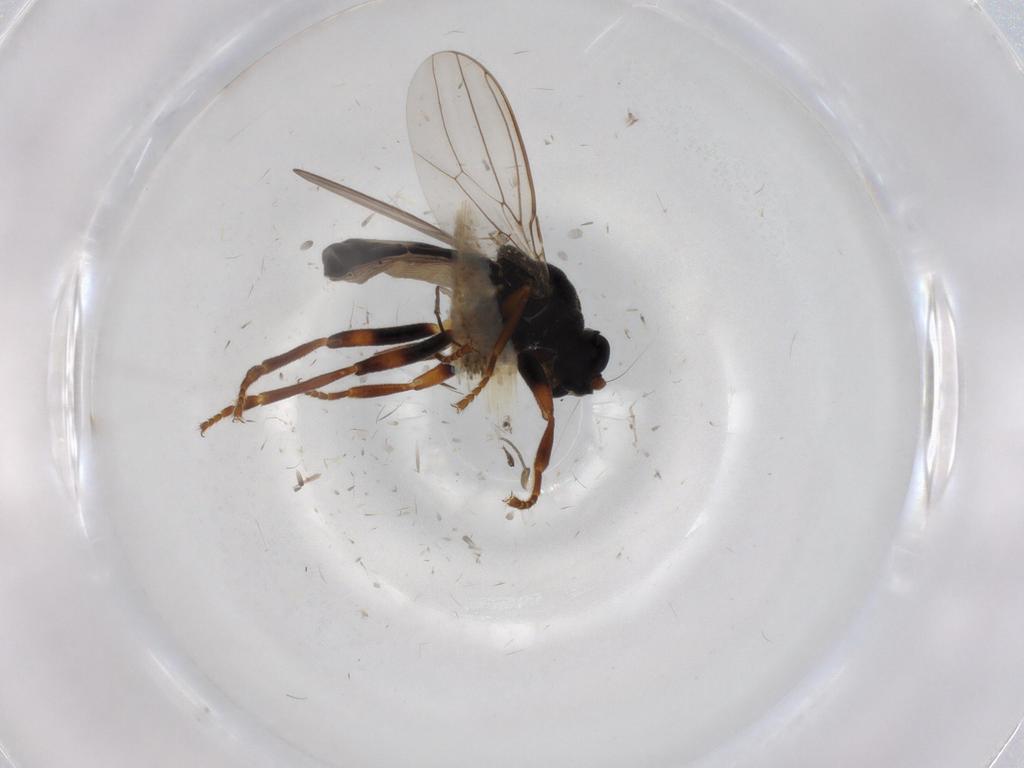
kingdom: Animalia
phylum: Arthropoda
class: Insecta
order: Diptera
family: Sphaeroceridae
